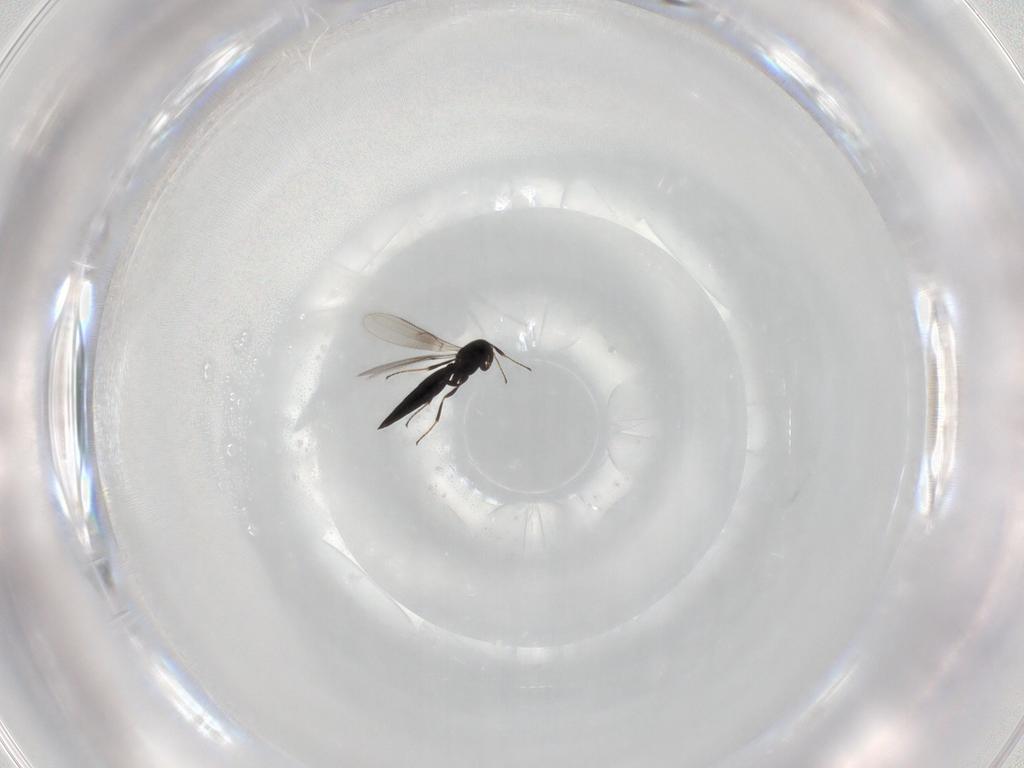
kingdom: Animalia
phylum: Arthropoda
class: Insecta
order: Hymenoptera
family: Scelionidae
